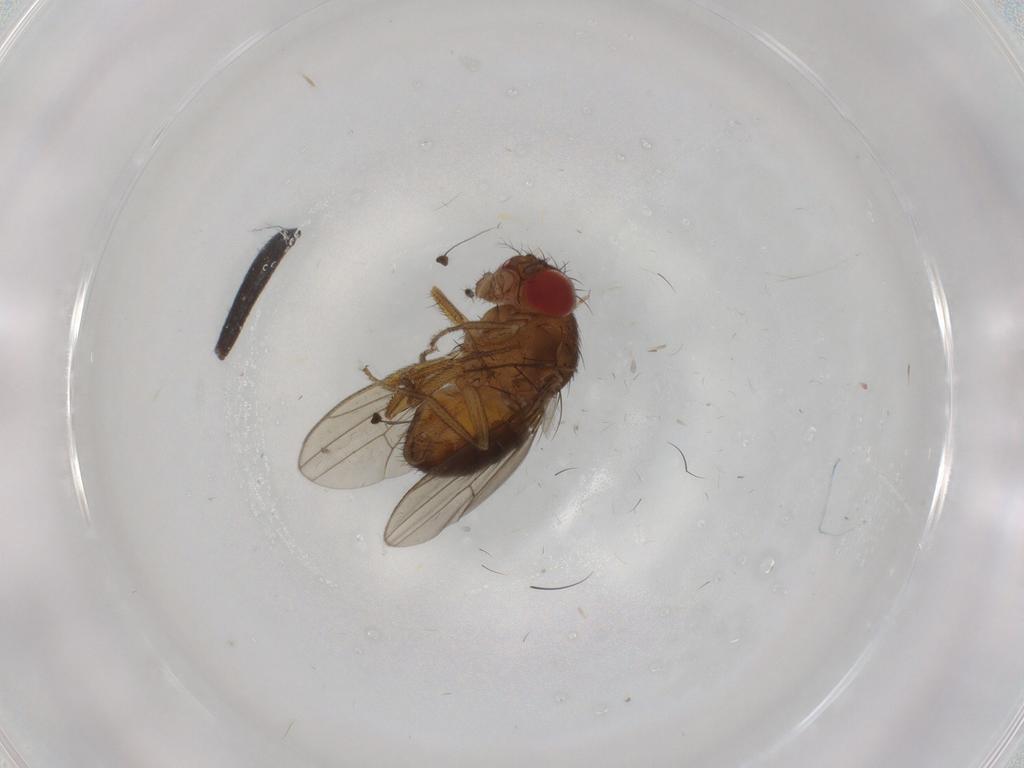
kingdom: Animalia
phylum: Arthropoda
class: Insecta
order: Diptera
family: Drosophilidae
